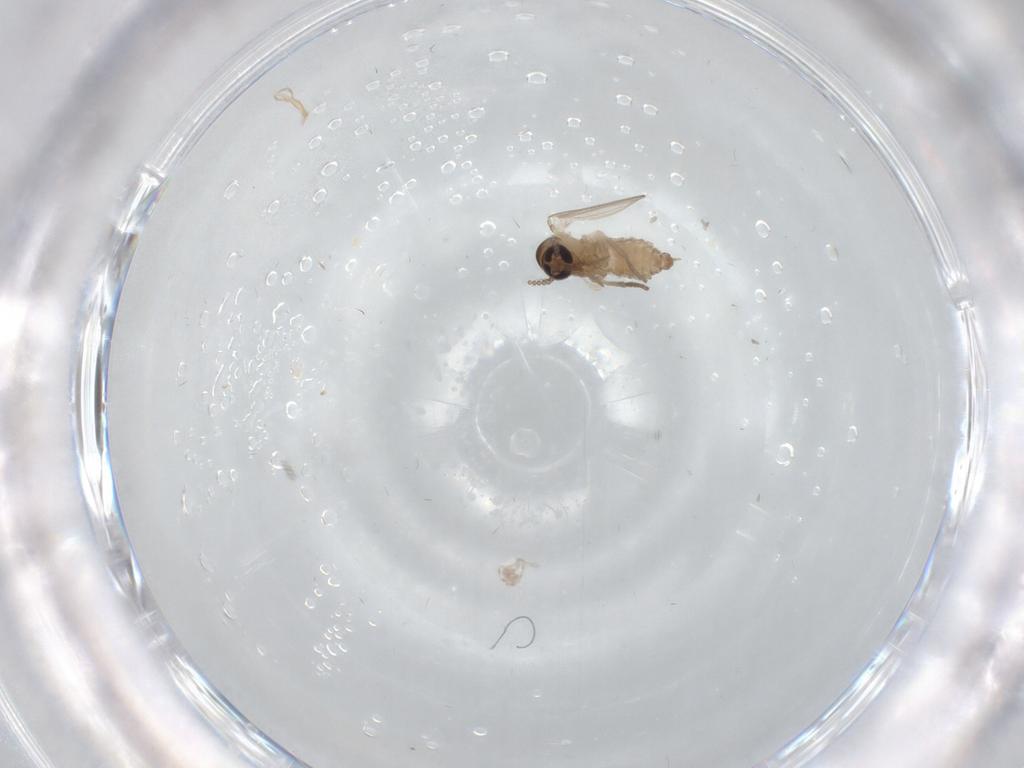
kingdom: Animalia
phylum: Arthropoda
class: Insecta
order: Diptera
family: Psychodidae
